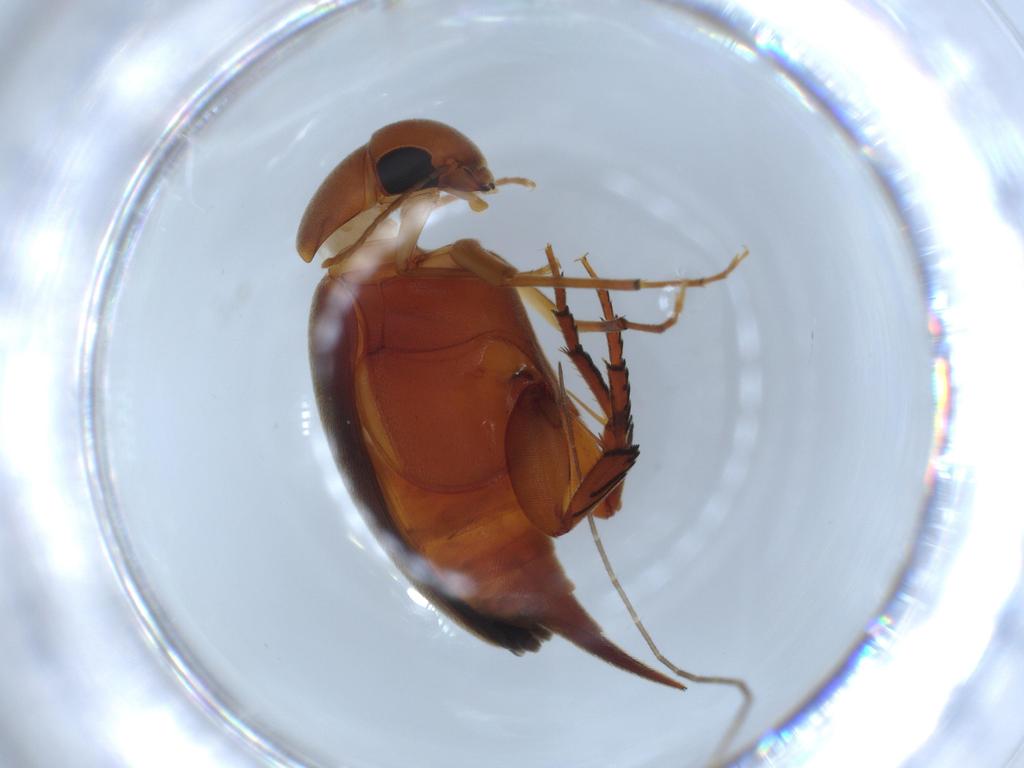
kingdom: Animalia
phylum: Arthropoda
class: Insecta
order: Coleoptera
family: Mordellidae
